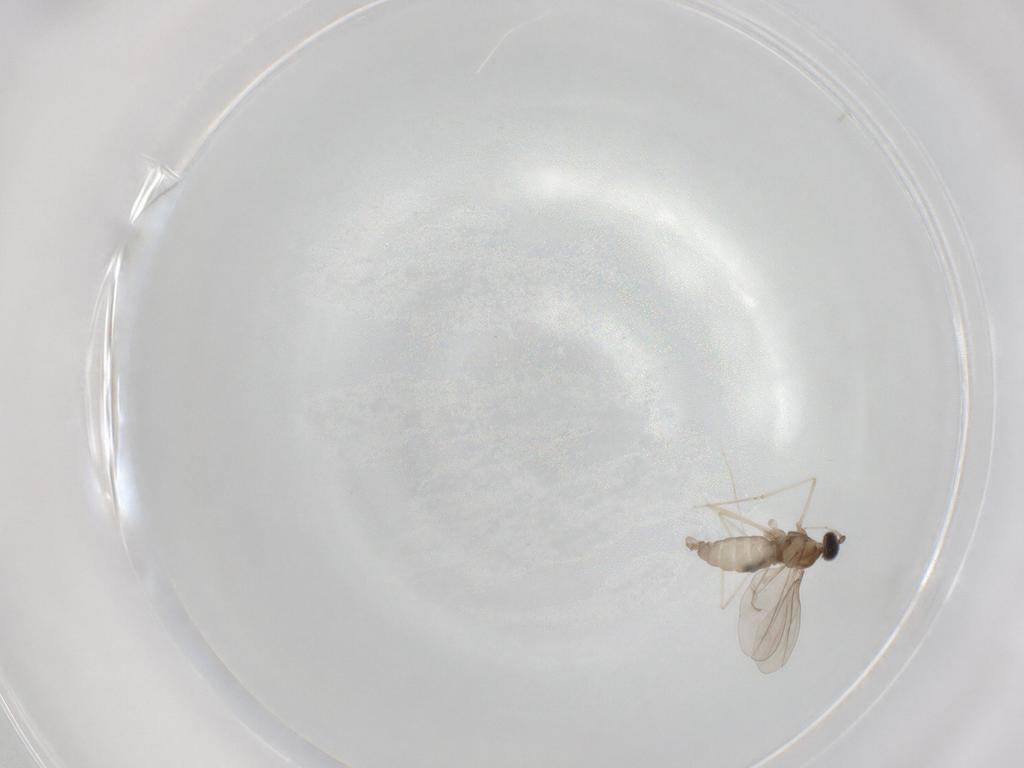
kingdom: Animalia
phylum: Arthropoda
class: Insecta
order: Diptera
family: Cecidomyiidae
